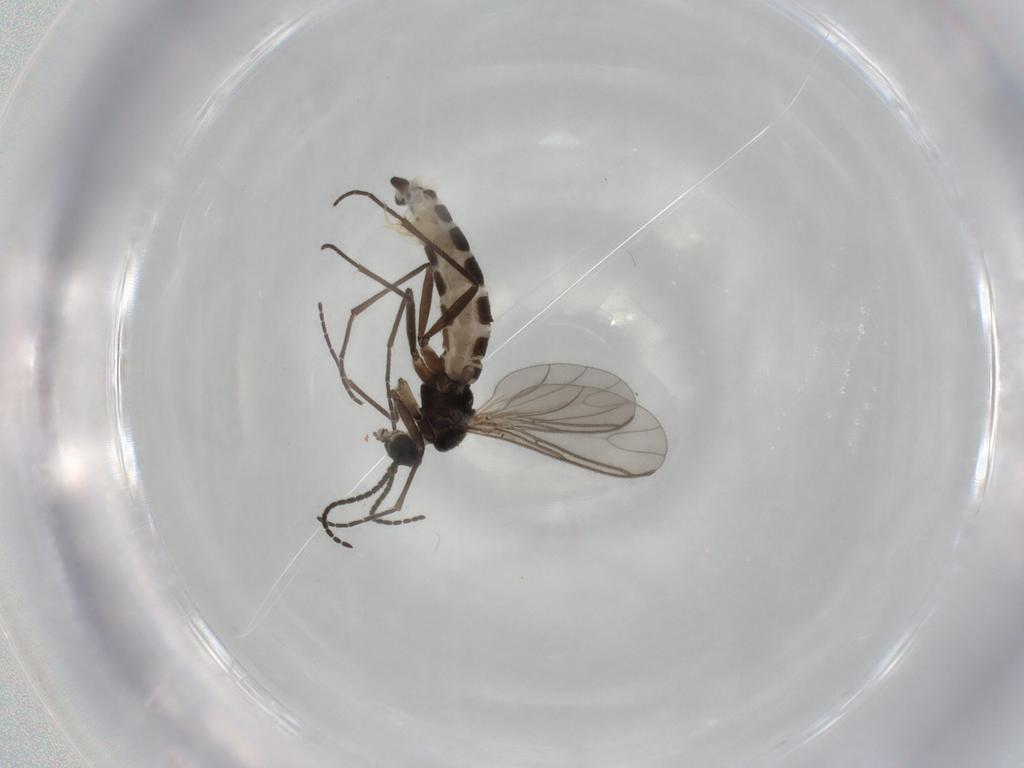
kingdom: Animalia
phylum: Arthropoda
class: Insecta
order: Diptera
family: Sciaridae
